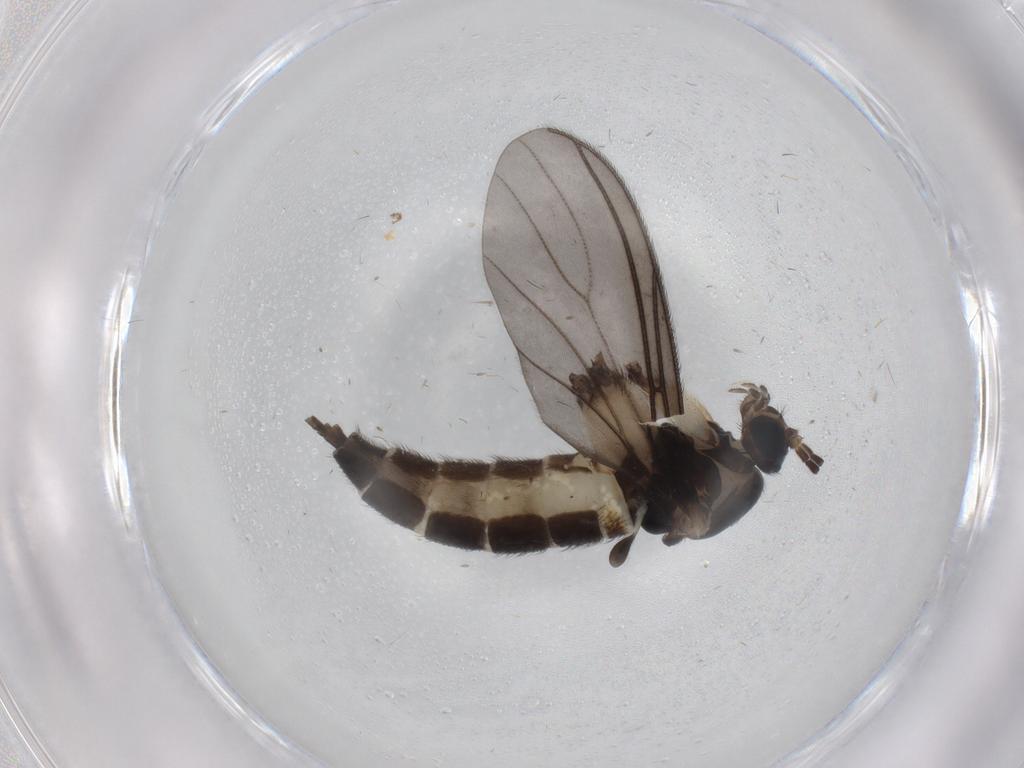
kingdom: Animalia
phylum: Arthropoda
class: Insecta
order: Diptera
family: Sciaridae
